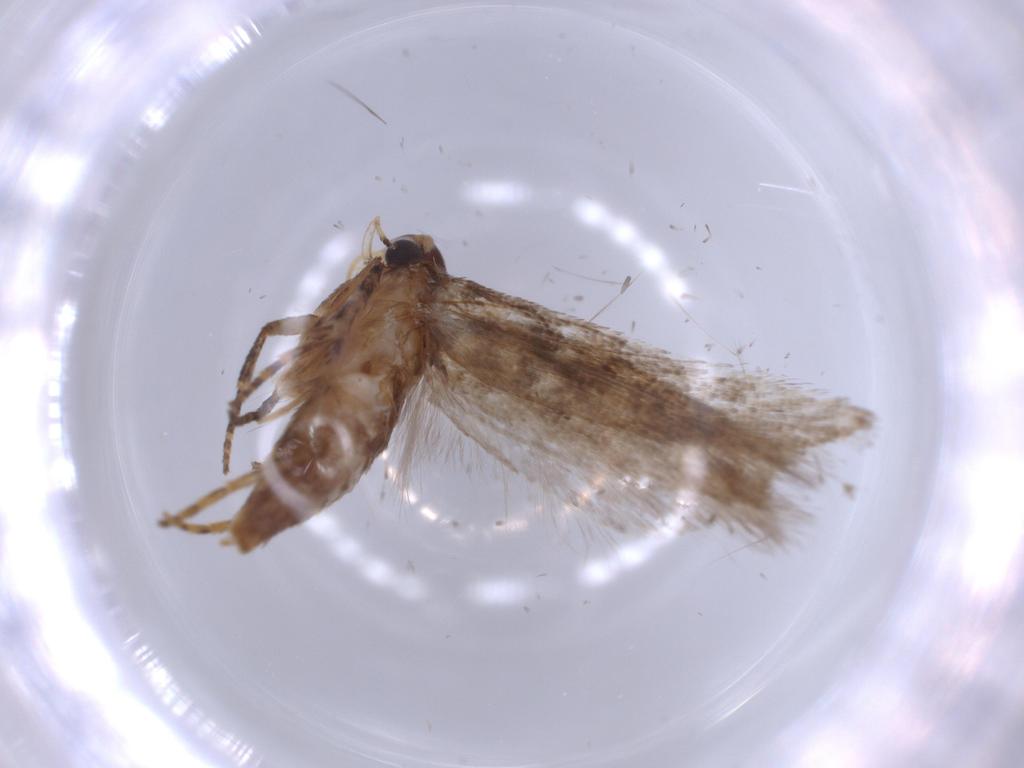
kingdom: Animalia
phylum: Arthropoda
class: Insecta
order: Lepidoptera
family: Gelechiidae
